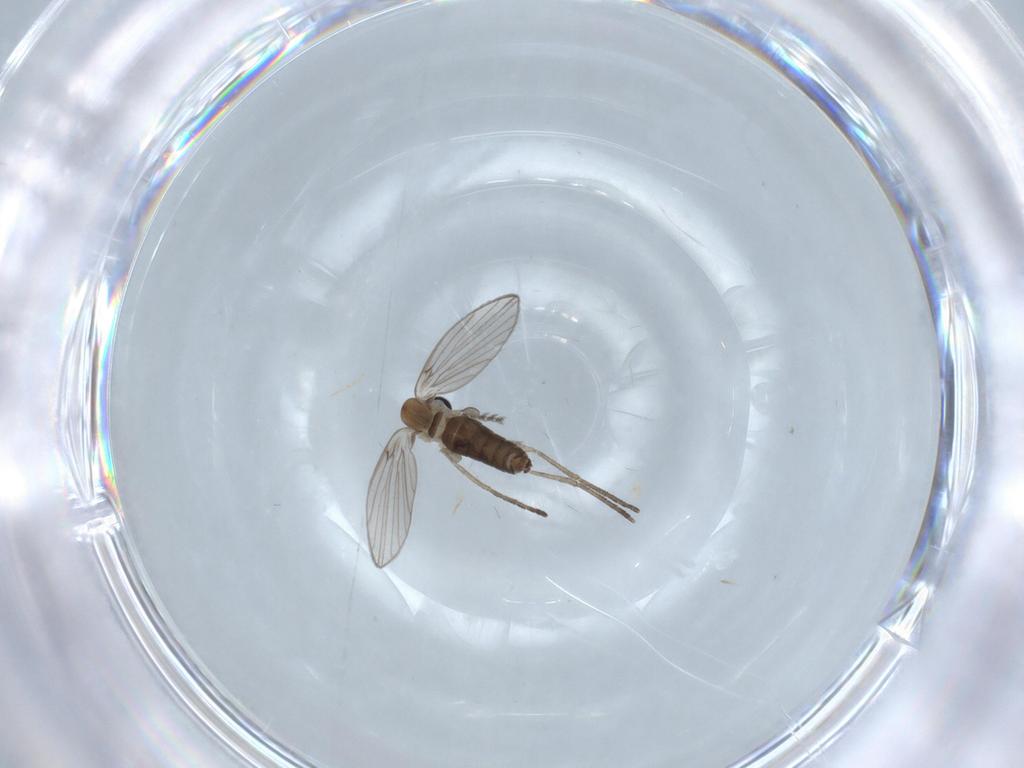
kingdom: Animalia
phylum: Arthropoda
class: Insecta
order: Diptera
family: Psychodidae
